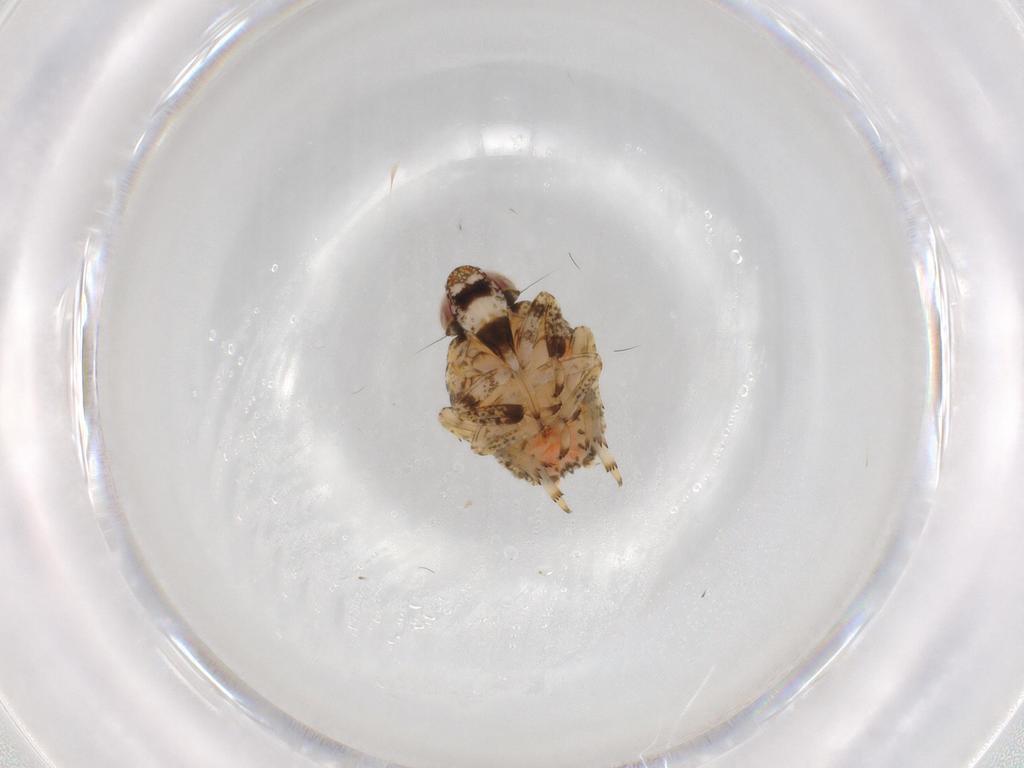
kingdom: Animalia
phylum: Arthropoda
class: Insecta
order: Hemiptera
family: Issidae
